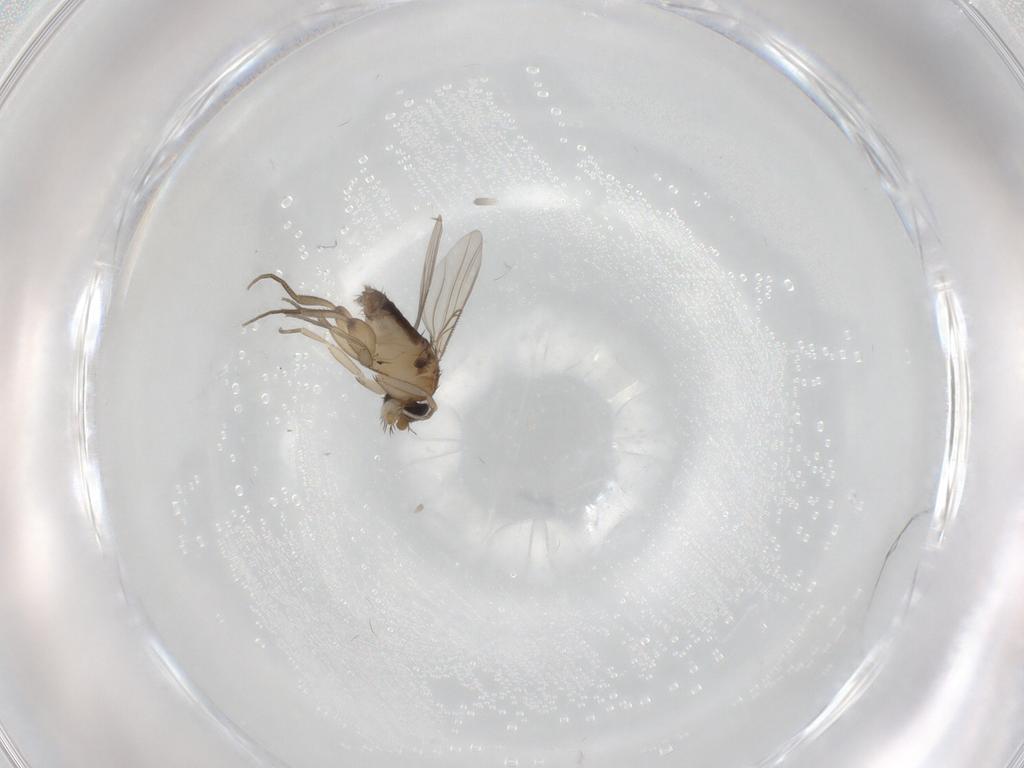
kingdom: Animalia
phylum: Arthropoda
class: Insecta
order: Diptera
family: Phoridae
